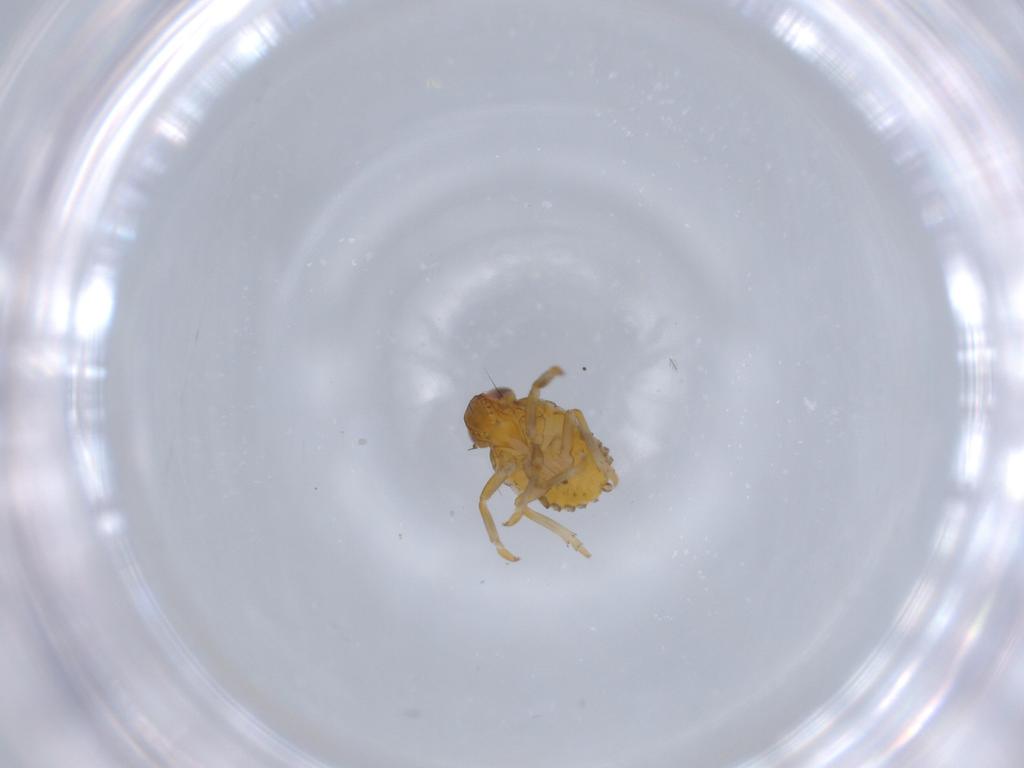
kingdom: Animalia
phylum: Arthropoda
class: Insecta
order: Hemiptera
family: Issidae
